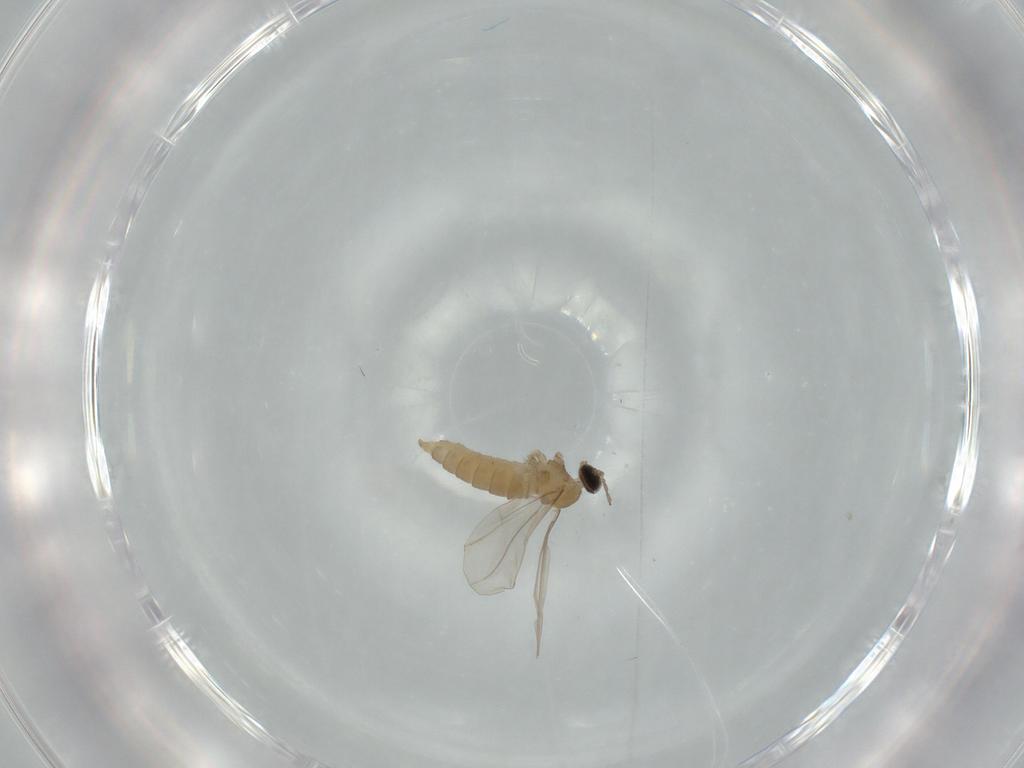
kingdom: Animalia
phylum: Arthropoda
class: Insecta
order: Diptera
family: Cecidomyiidae
